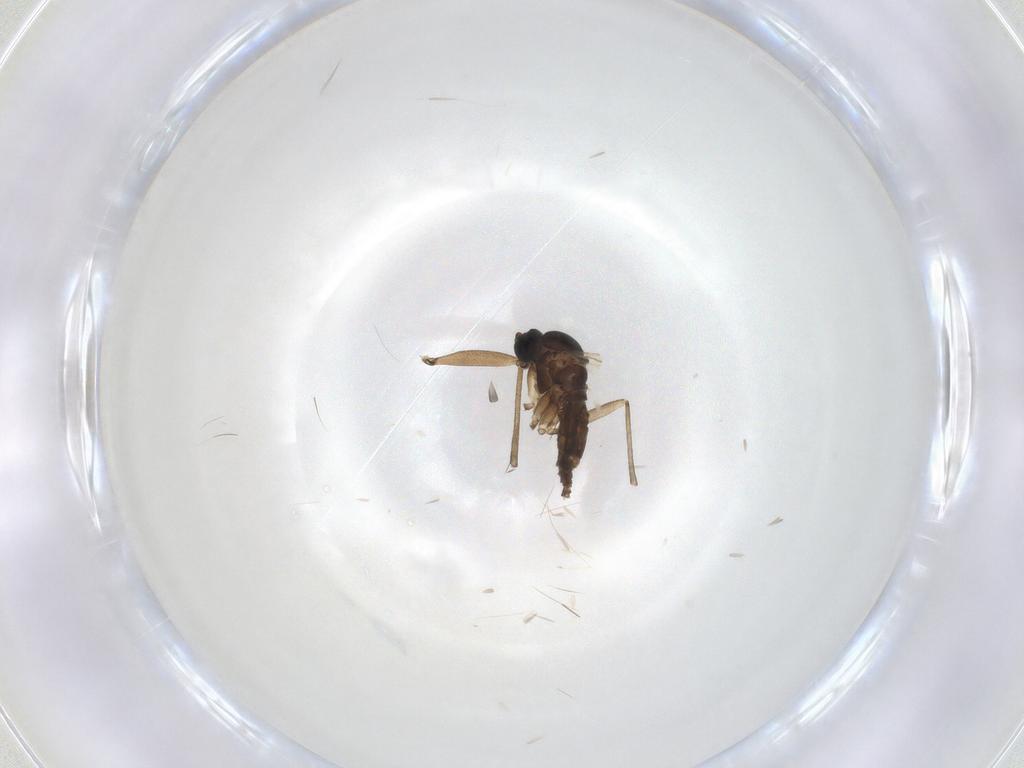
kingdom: Animalia
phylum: Arthropoda
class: Insecta
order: Diptera
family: Sciaridae
